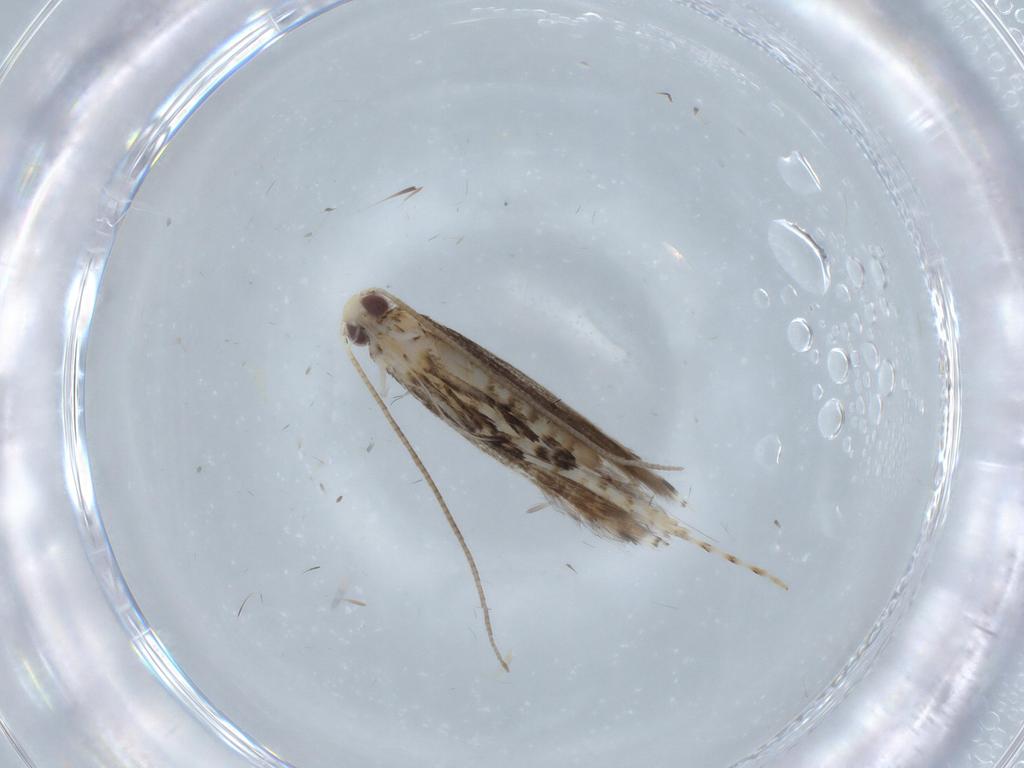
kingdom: Animalia
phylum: Arthropoda
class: Insecta
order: Lepidoptera
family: Gracillariidae
